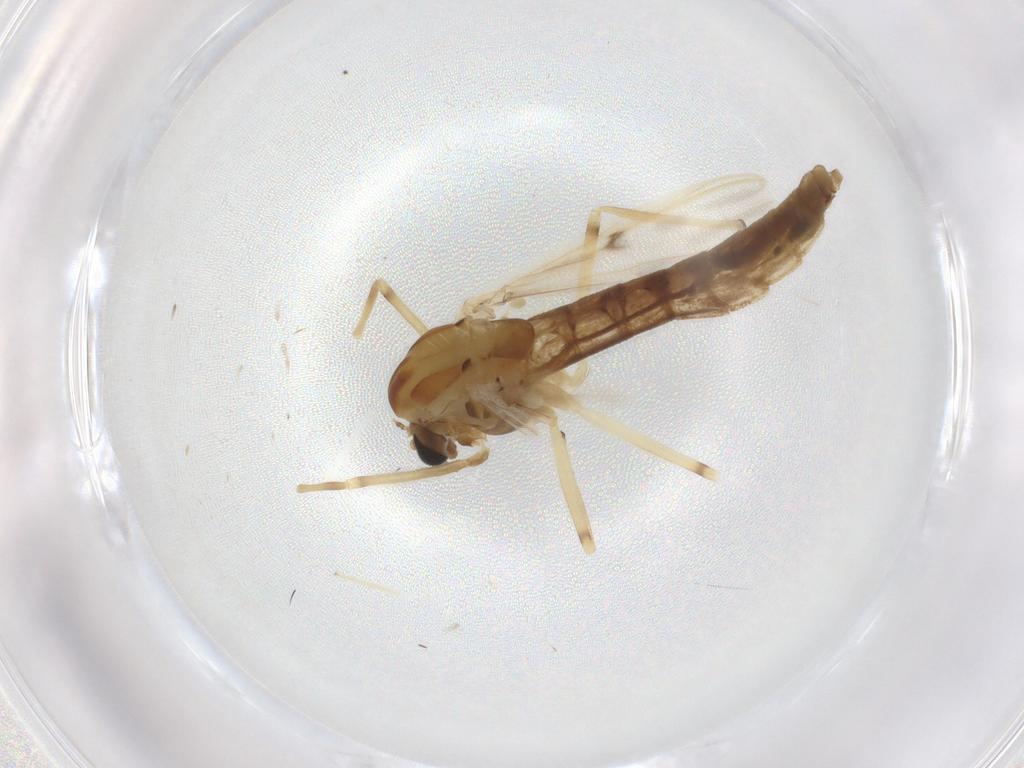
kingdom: Animalia
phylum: Arthropoda
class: Insecta
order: Diptera
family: Chironomidae
